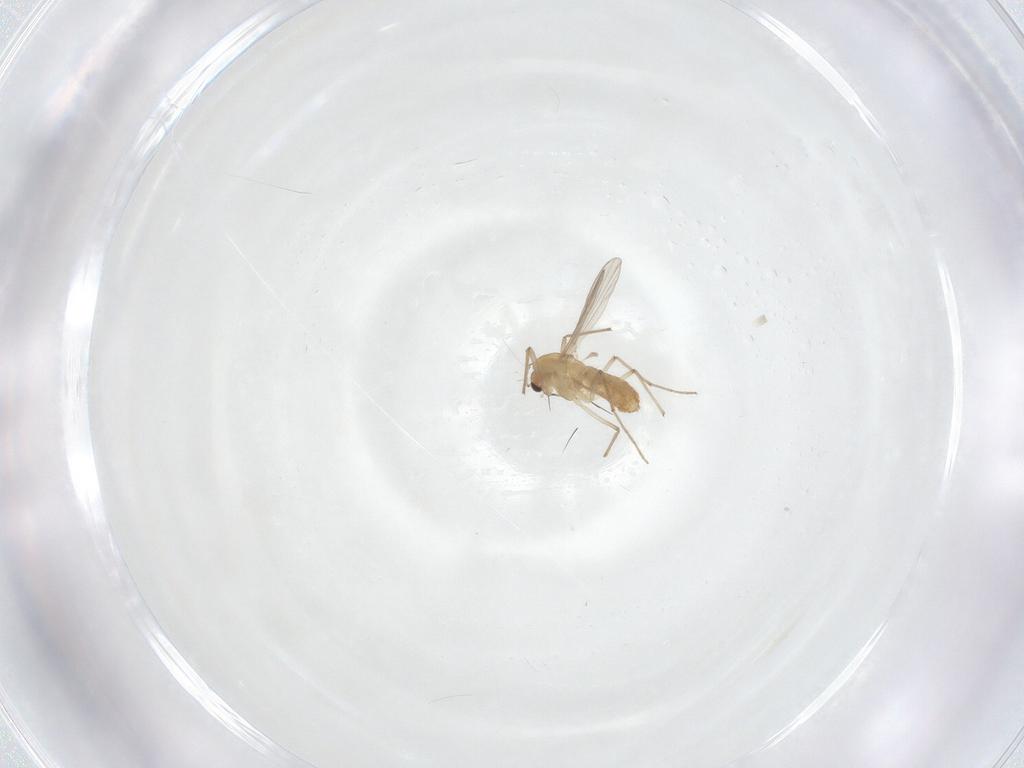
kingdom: Animalia
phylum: Arthropoda
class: Insecta
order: Diptera
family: Chironomidae
